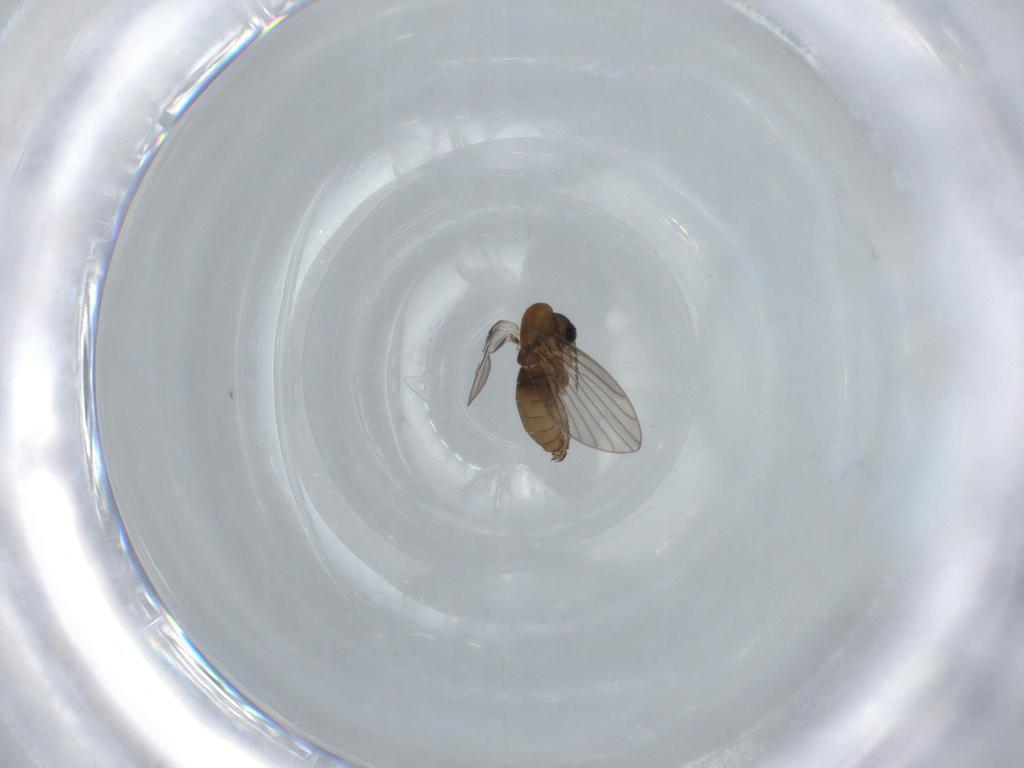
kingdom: Animalia
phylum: Arthropoda
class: Insecta
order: Diptera
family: Psychodidae
